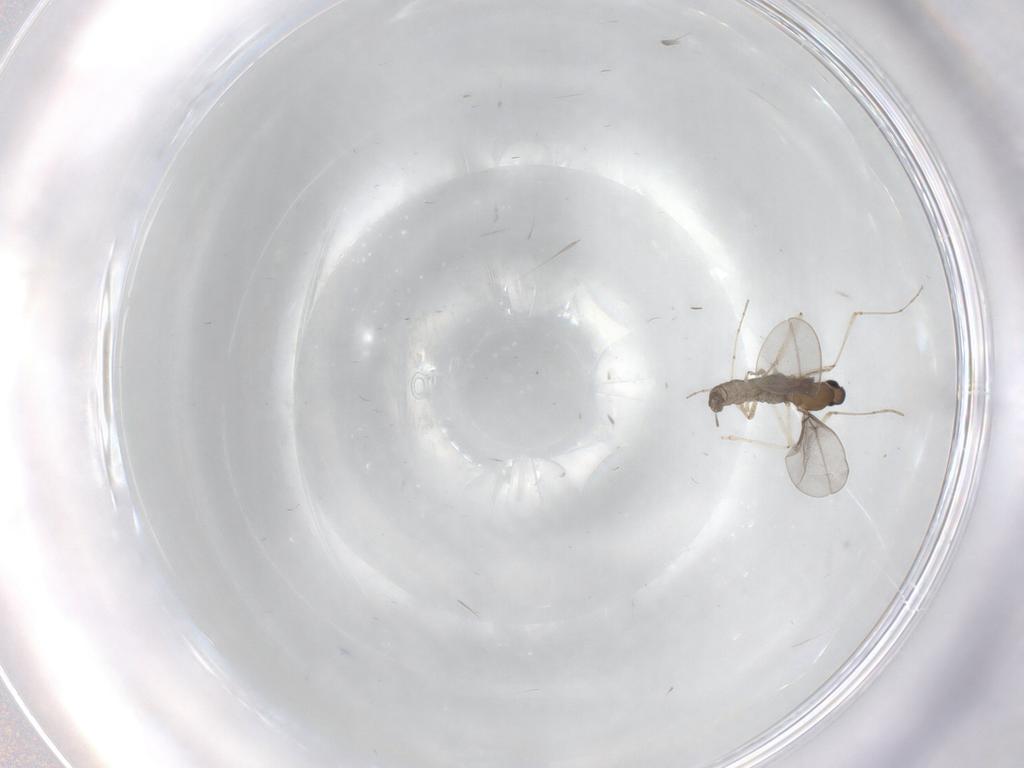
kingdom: Animalia
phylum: Arthropoda
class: Insecta
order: Diptera
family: Cecidomyiidae
